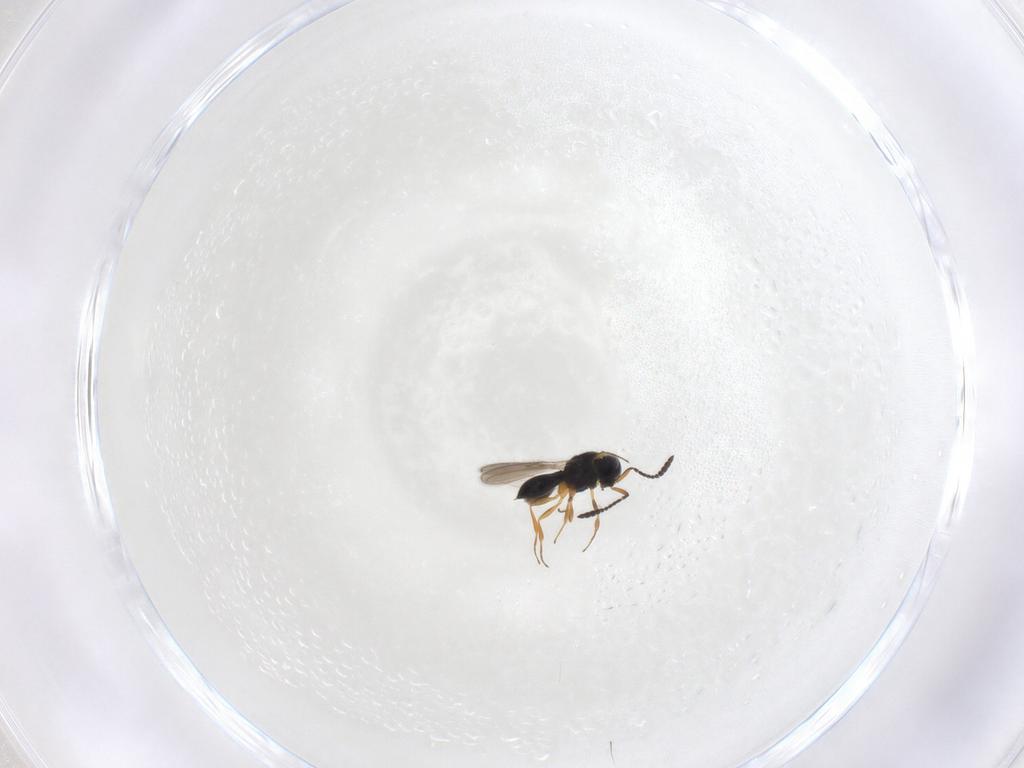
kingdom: Animalia
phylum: Arthropoda
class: Insecta
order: Hymenoptera
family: Scelionidae
